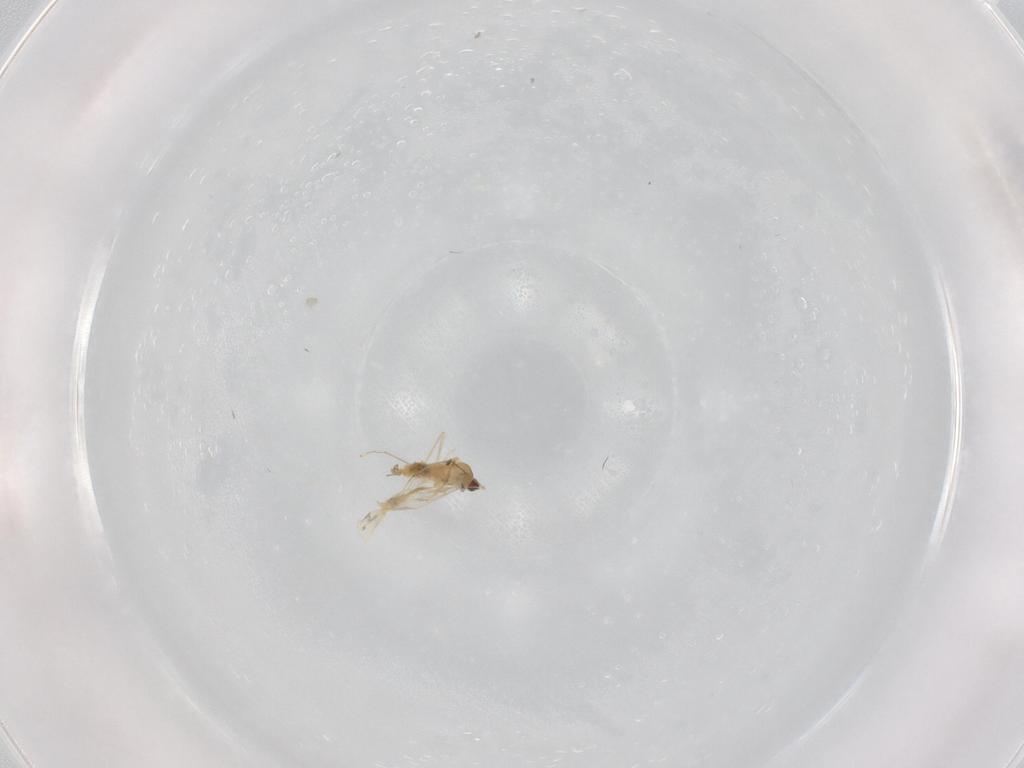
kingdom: Animalia
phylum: Arthropoda
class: Insecta
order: Diptera
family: Cecidomyiidae
